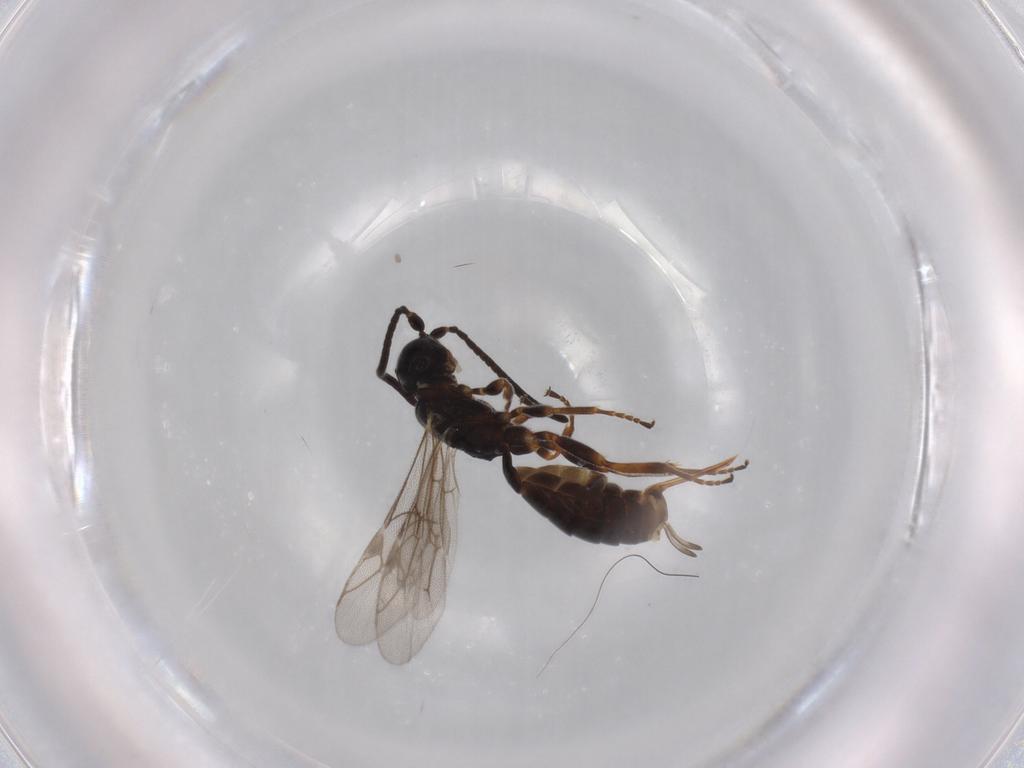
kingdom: Animalia
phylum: Arthropoda
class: Insecta
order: Hymenoptera
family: Ichneumonidae
